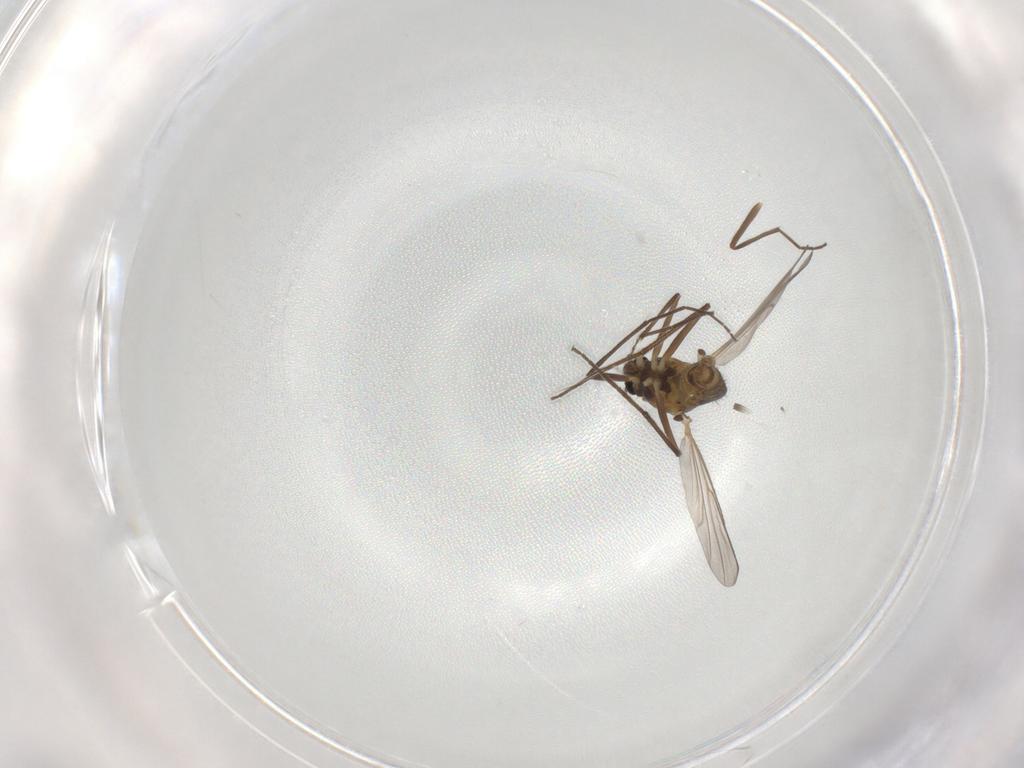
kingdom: Animalia
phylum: Arthropoda
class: Insecta
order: Diptera
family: Chironomidae
